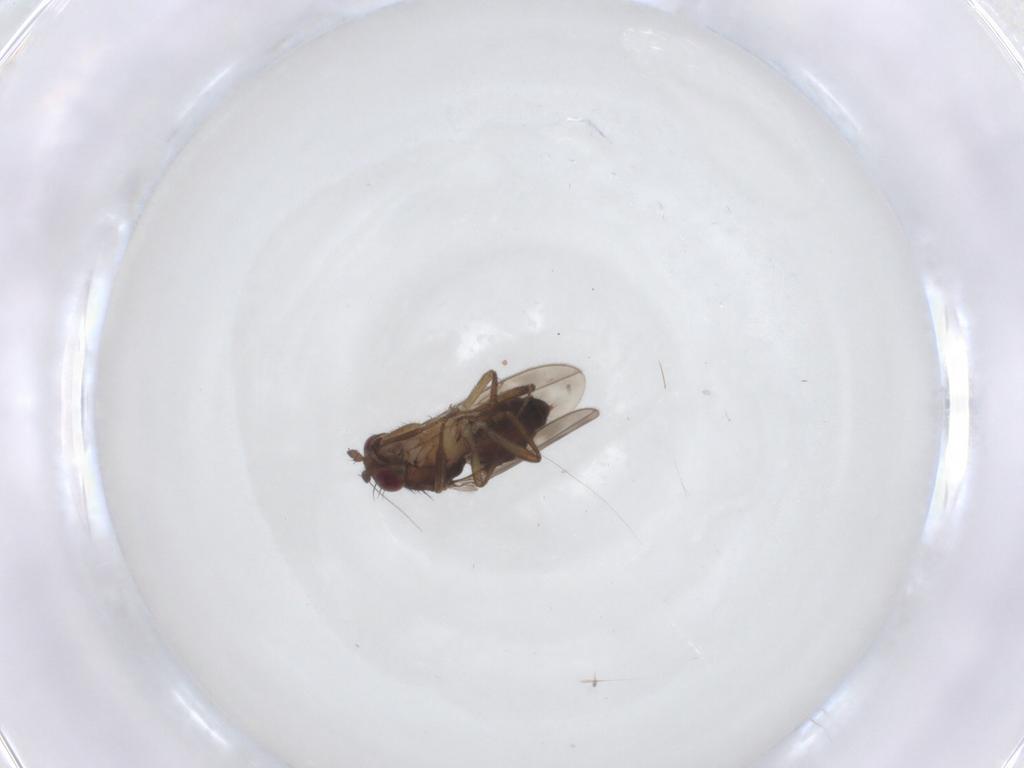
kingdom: Animalia
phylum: Arthropoda
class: Insecta
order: Diptera
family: Sphaeroceridae
